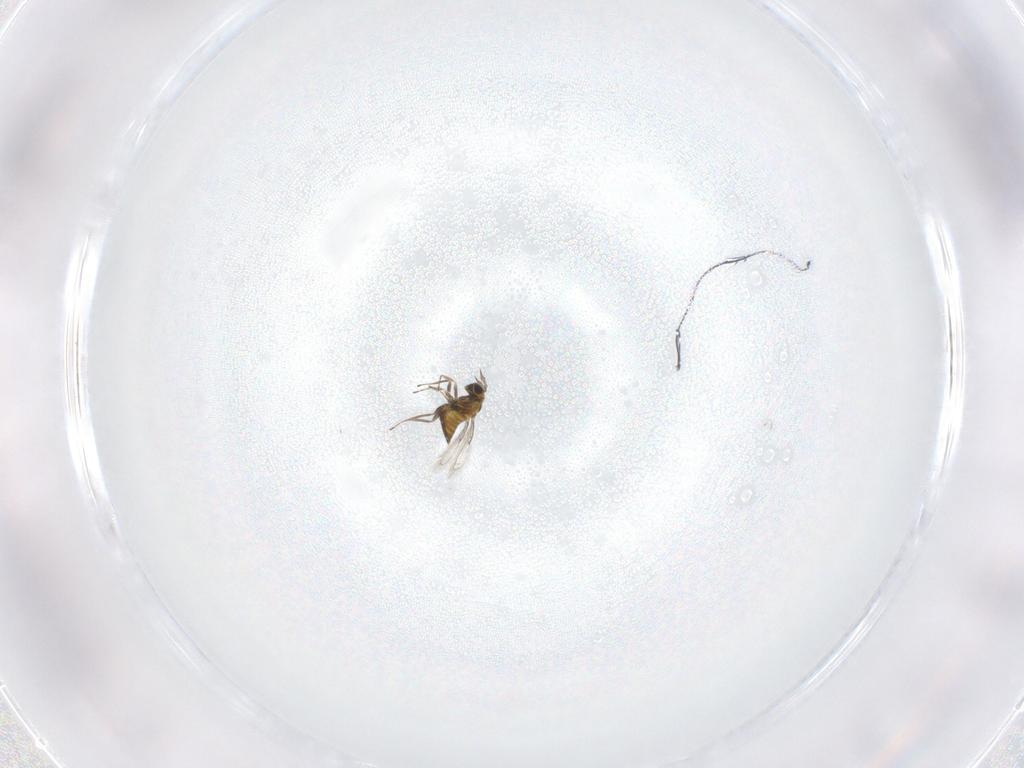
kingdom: Animalia
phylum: Arthropoda
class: Insecta
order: Hymenoptera
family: Trichogrammatidae
